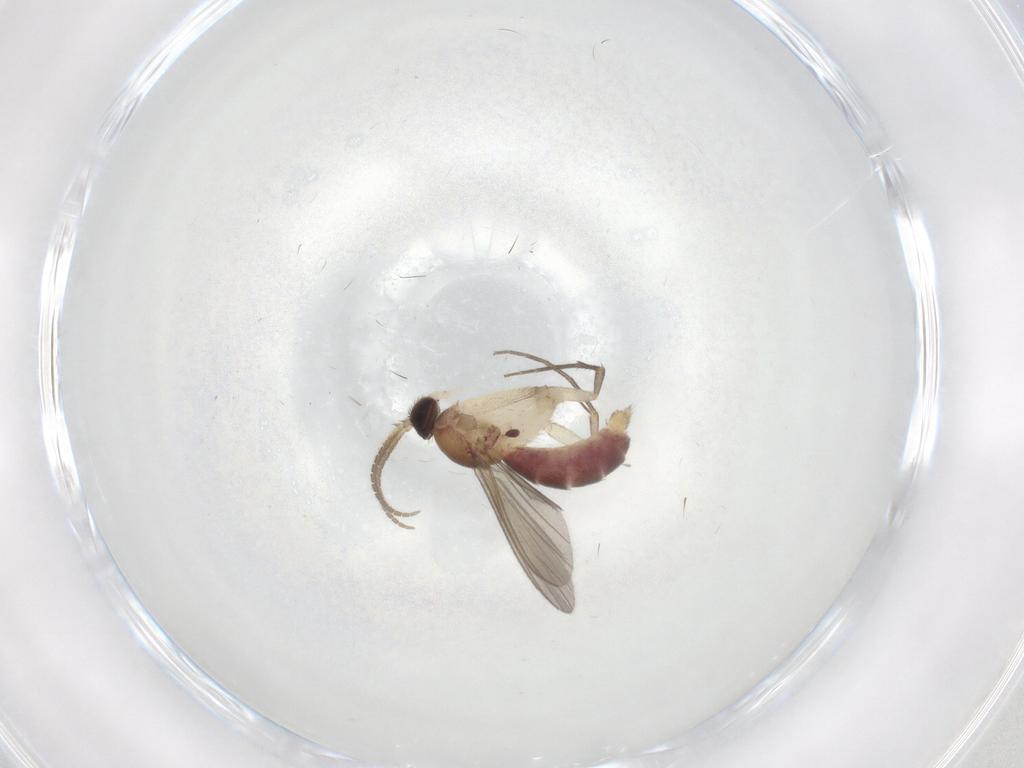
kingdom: Animalia
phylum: Arthropoda
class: Insecta
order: Diptera
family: Mycetophilidae
